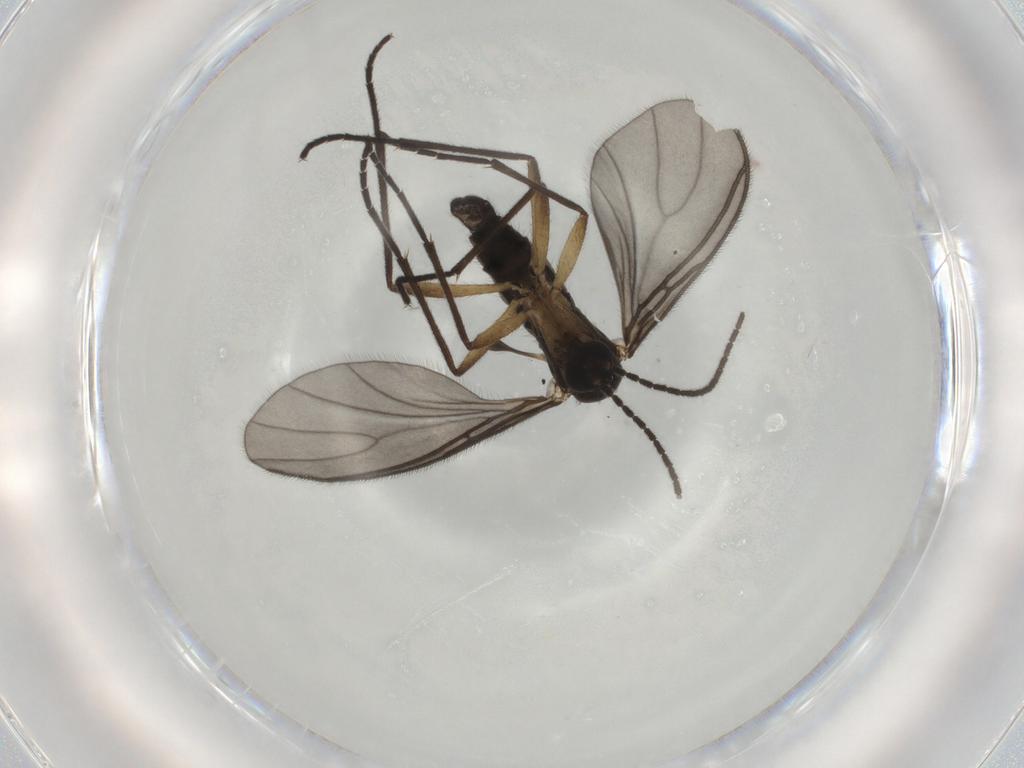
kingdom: Animalia
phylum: Arthropoda
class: Insecta
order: Diptera
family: Sciaridae
